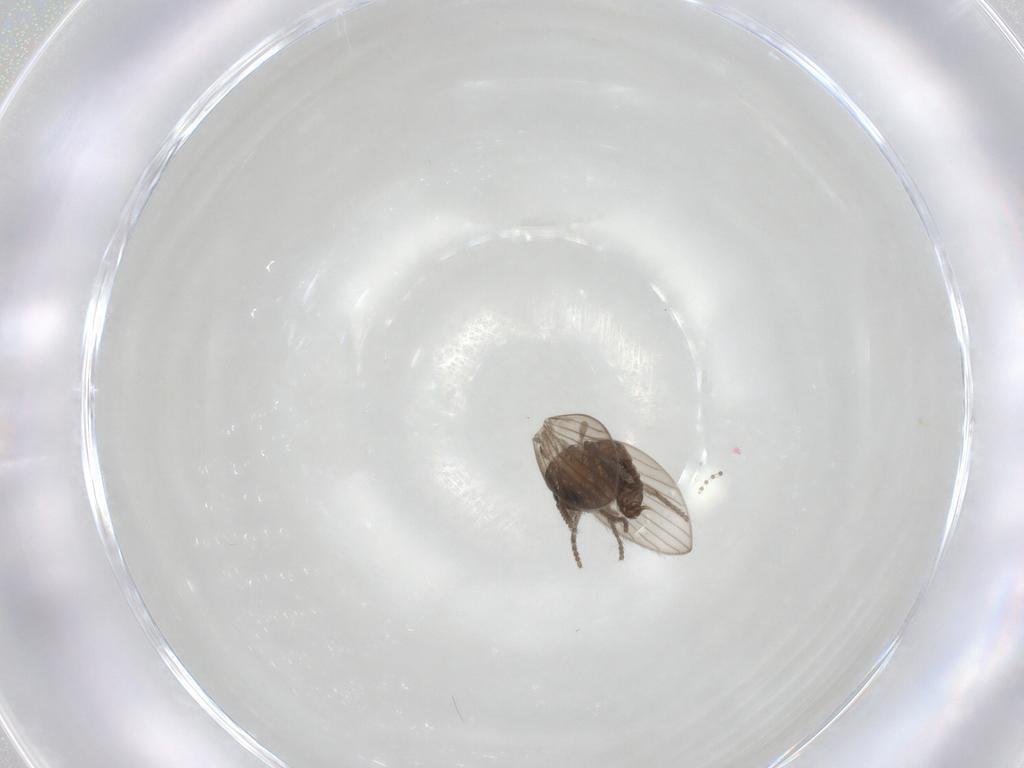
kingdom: Animalia
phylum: Arthropoda
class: Insecta
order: Diptera
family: Psychodidae
